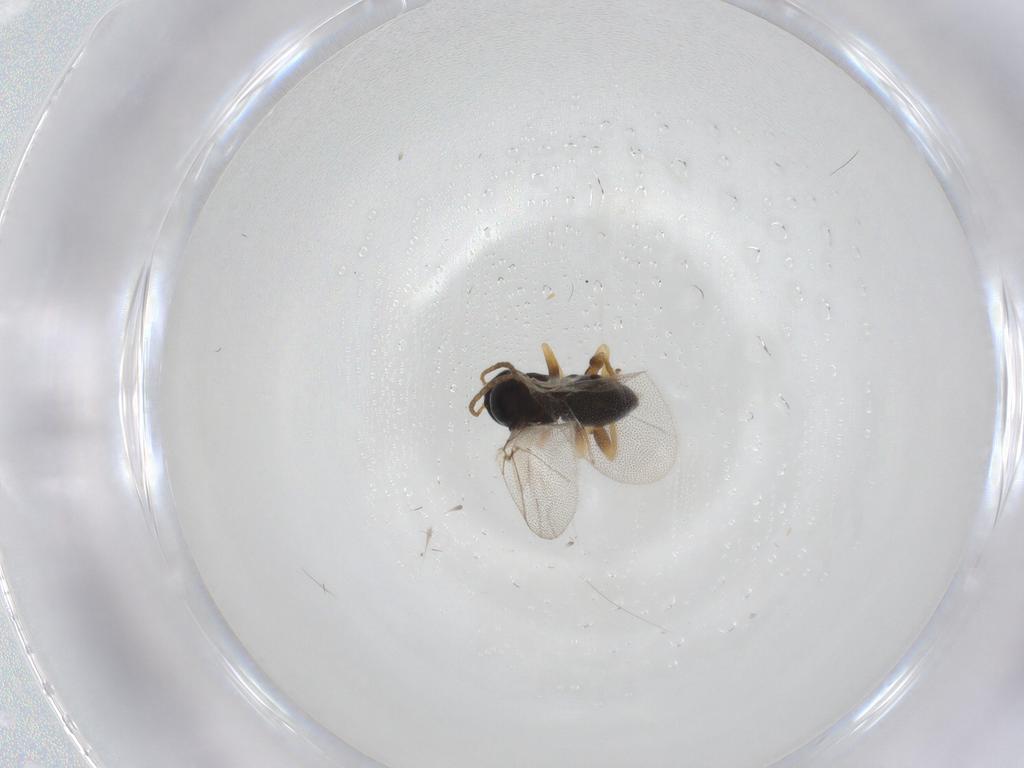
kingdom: Animalia
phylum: Arthropoda
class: Insecta
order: Hymenoptera
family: Cynipidae
